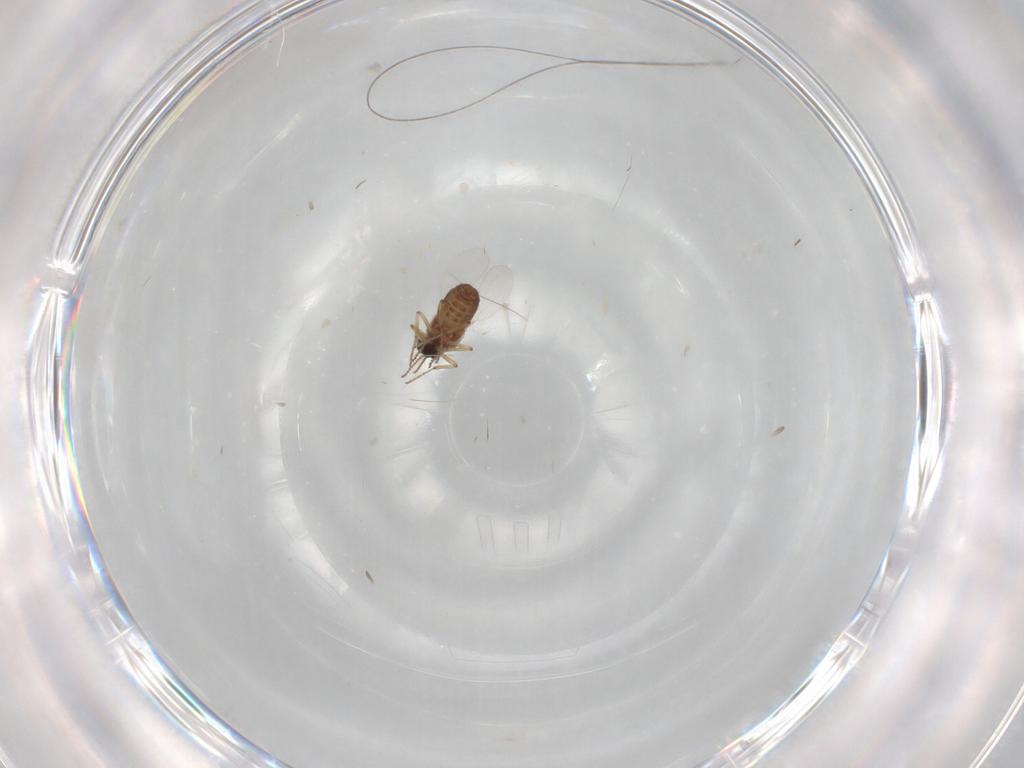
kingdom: Animalia
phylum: Arthropoda
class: Insecta
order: Diptera
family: Ceratopogonidae
